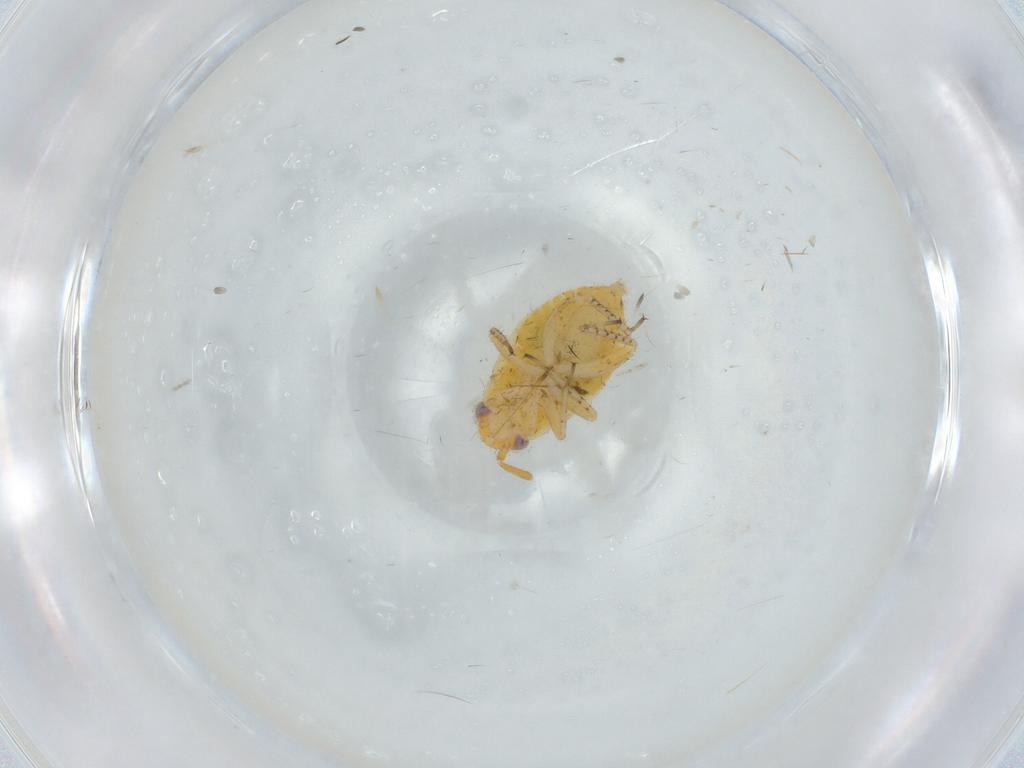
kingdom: Animalia
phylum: Arthropoda
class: Insecta
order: Hemiptera
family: Miridae
